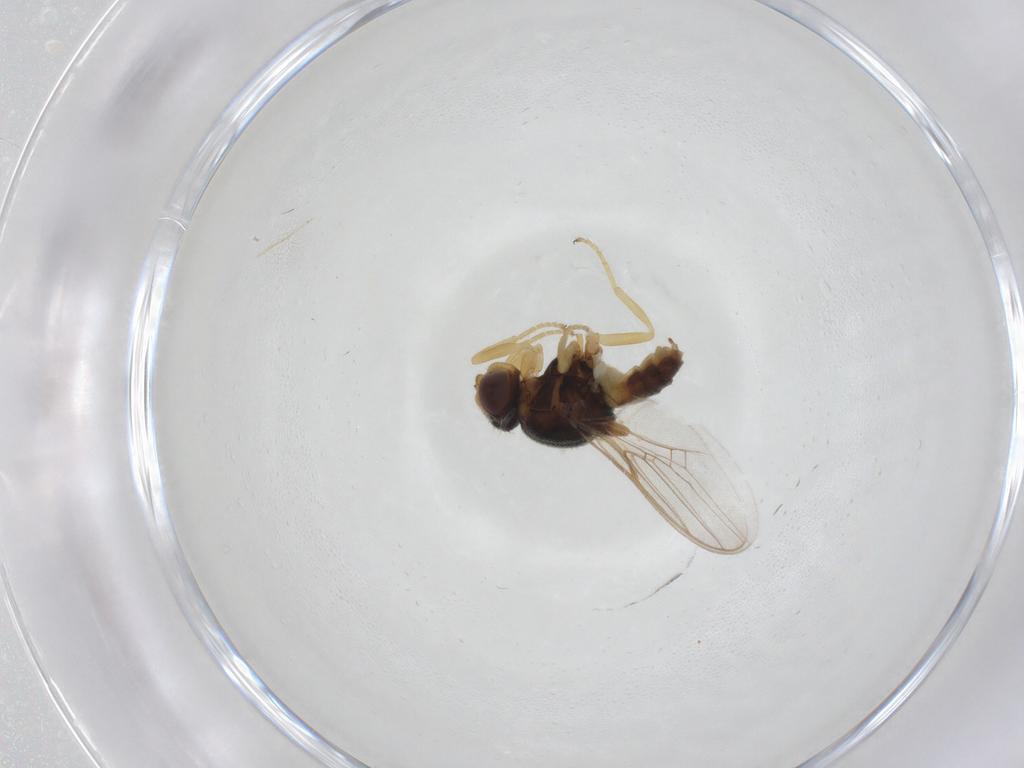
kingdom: Animalia
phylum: Arthropoda
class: Insecta
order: Diptera
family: Chloropidae
